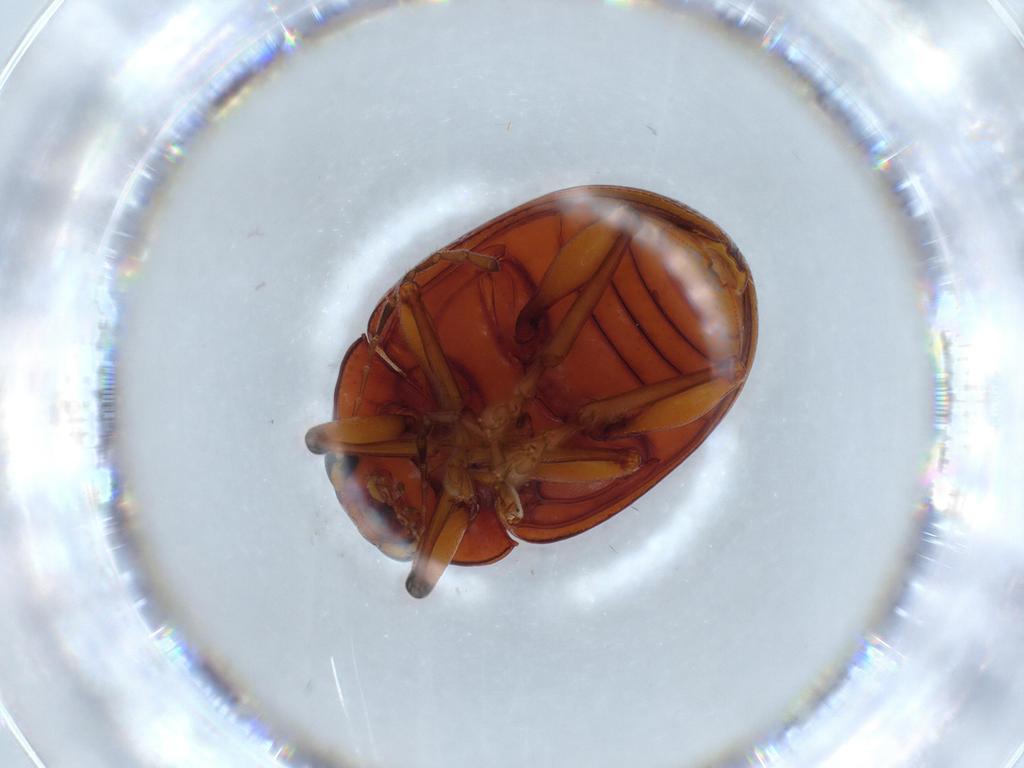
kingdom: Animalia
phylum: Arthropoda
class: Insecta
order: Coleoptera
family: Chrysomelidae
